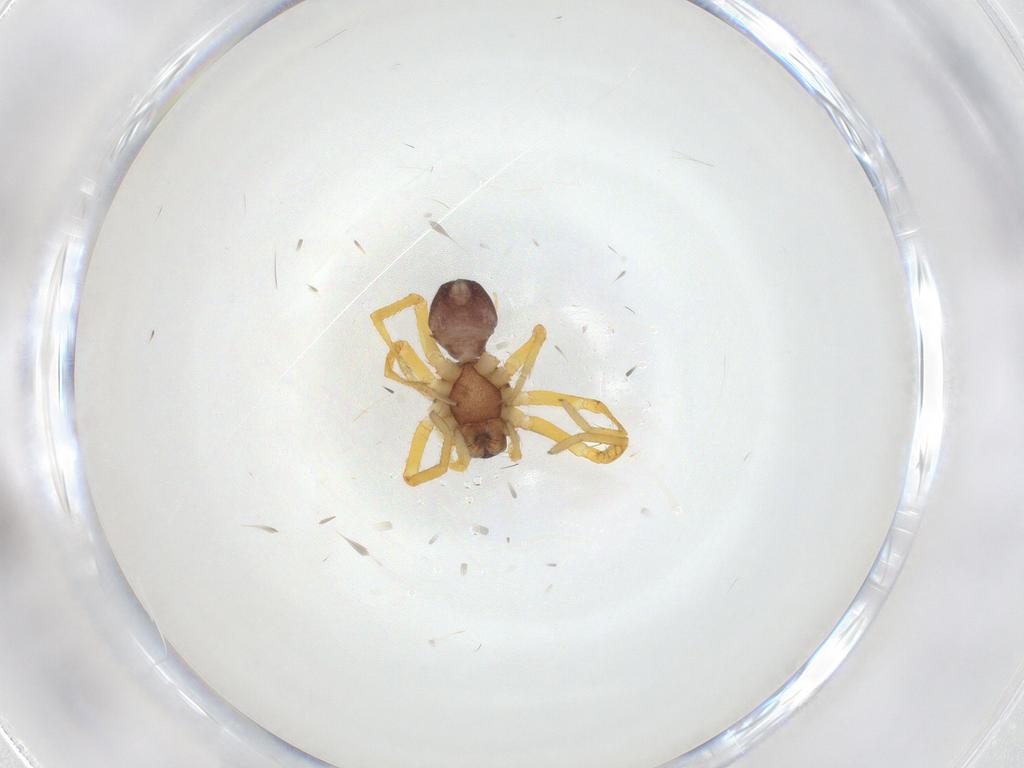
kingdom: Animalia
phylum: Arthropoda
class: Arachnida
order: Araneae
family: Corinnidae
